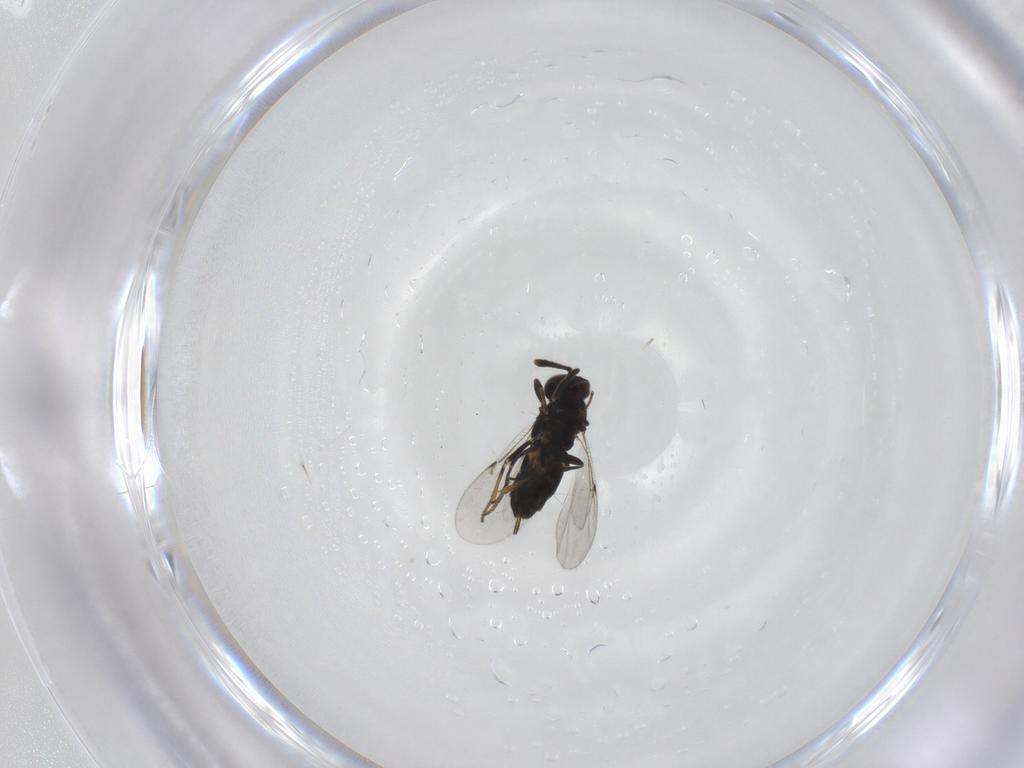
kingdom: Animalia
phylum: Arthropoda
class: Insecta
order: Hymenoptera
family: Encyrtidae
